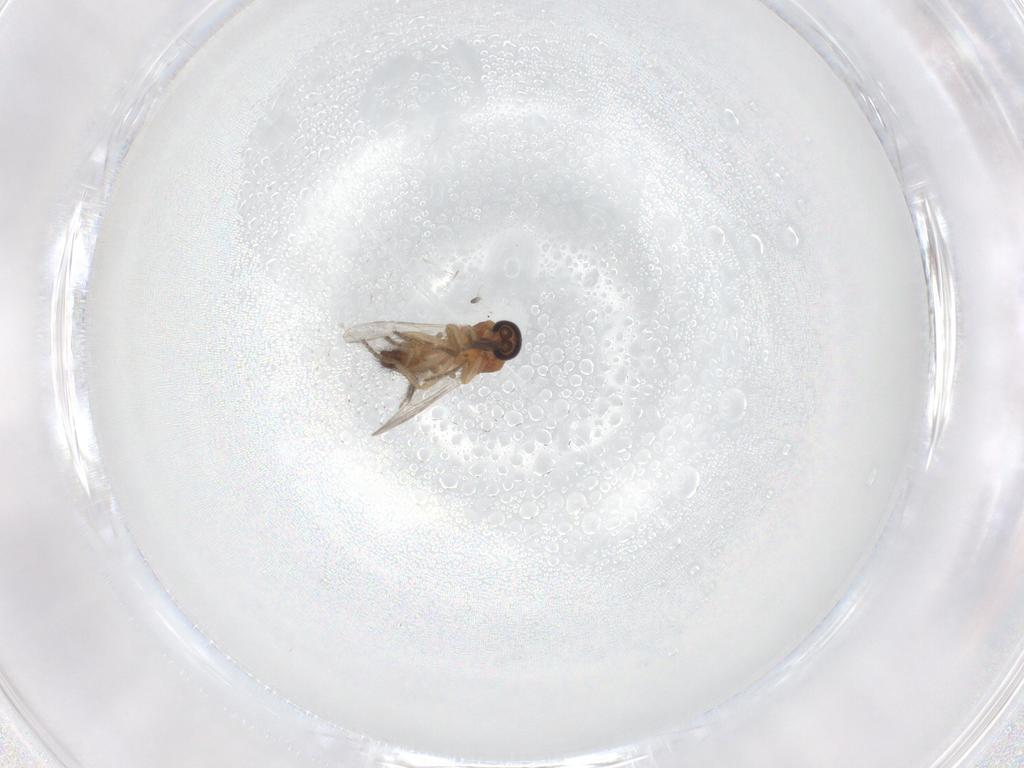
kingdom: Animalia
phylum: Arthropoda
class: Insecta
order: Diptera
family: Ceratopogonidae
